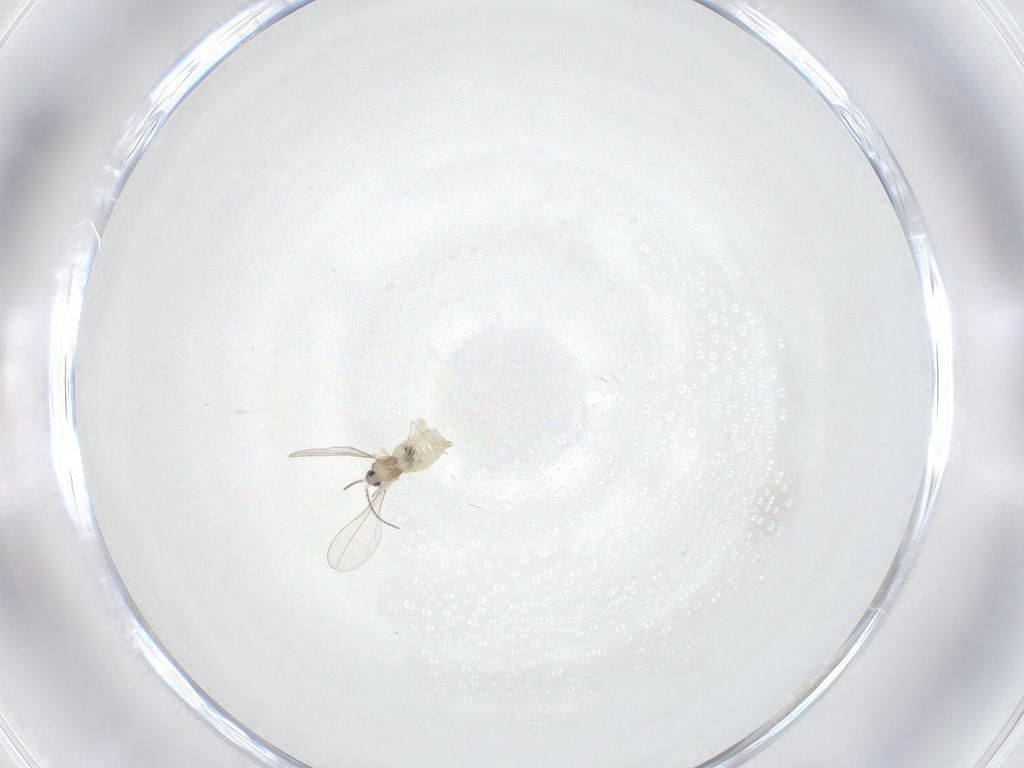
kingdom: Animalia
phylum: Arthropoda
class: Insecta
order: Diptera
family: Cecidomyiidae
